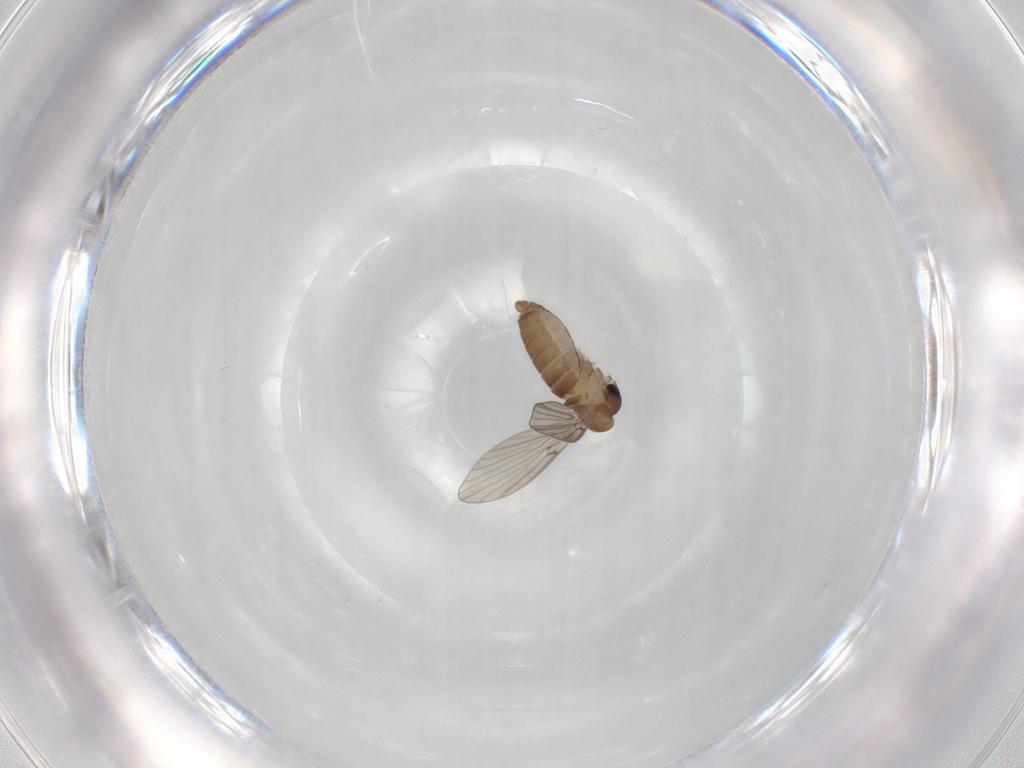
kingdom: Animalia
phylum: Arthropoda
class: Insecta
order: Diptera
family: Psychodidae
